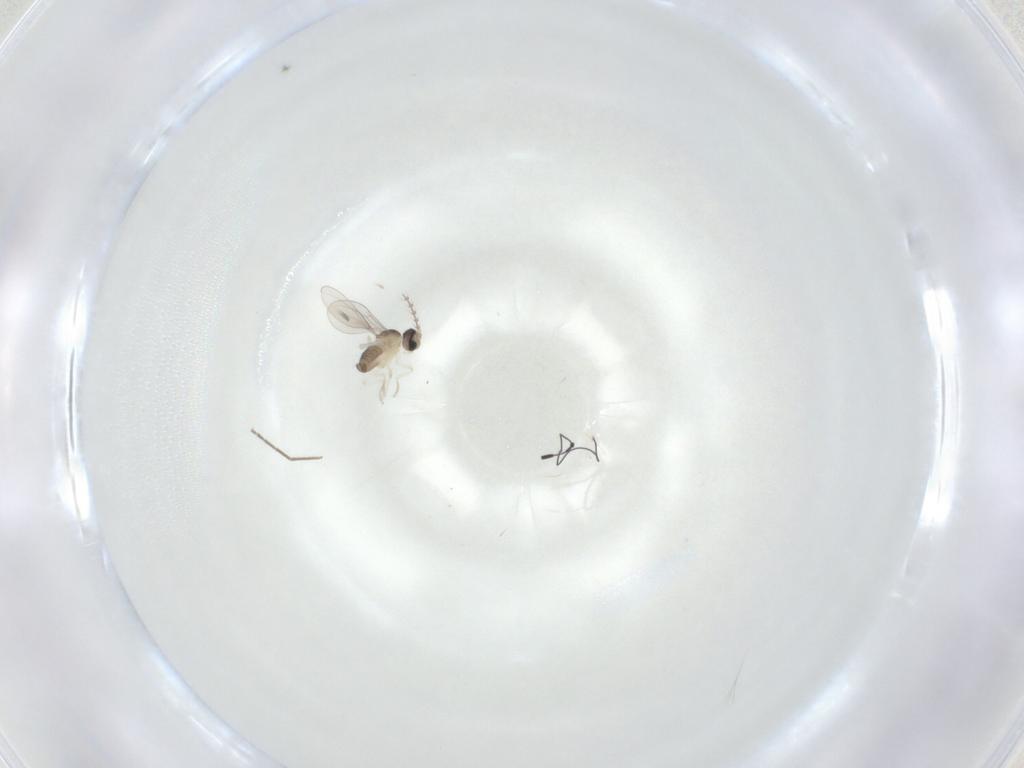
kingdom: Animalia
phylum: Arthropoda
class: Insecta
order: Diptera
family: Cecidomyiidae
